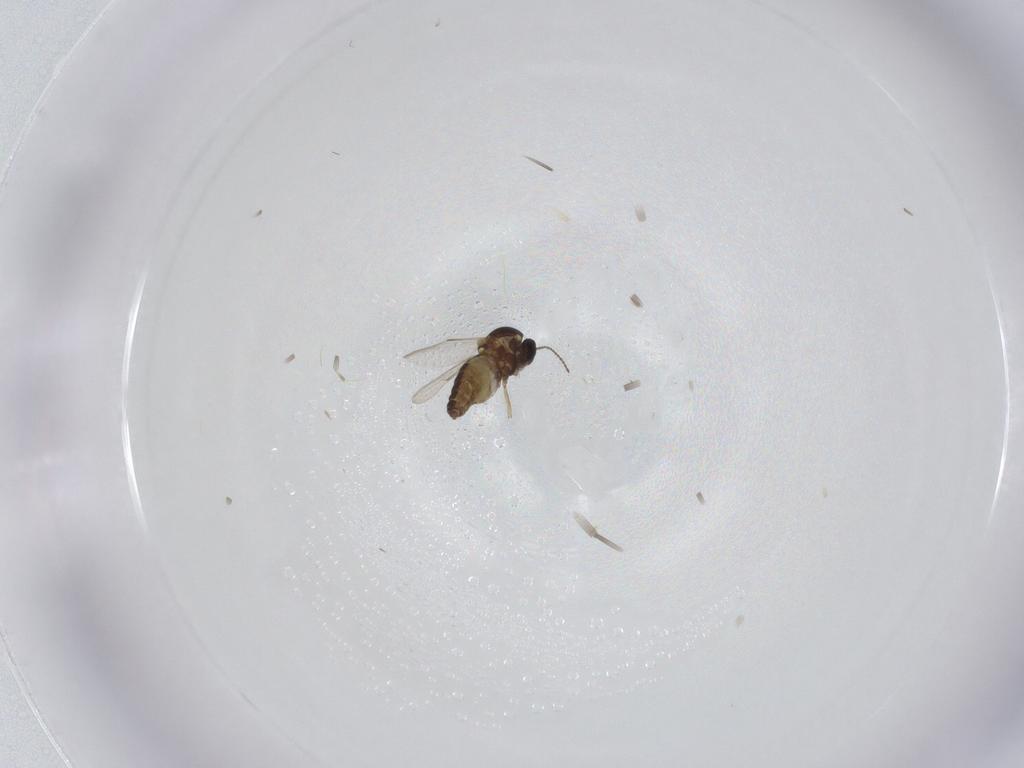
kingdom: Animalia
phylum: Arthropoda
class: Insecta
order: Diptera
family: Ceratopogonidae
